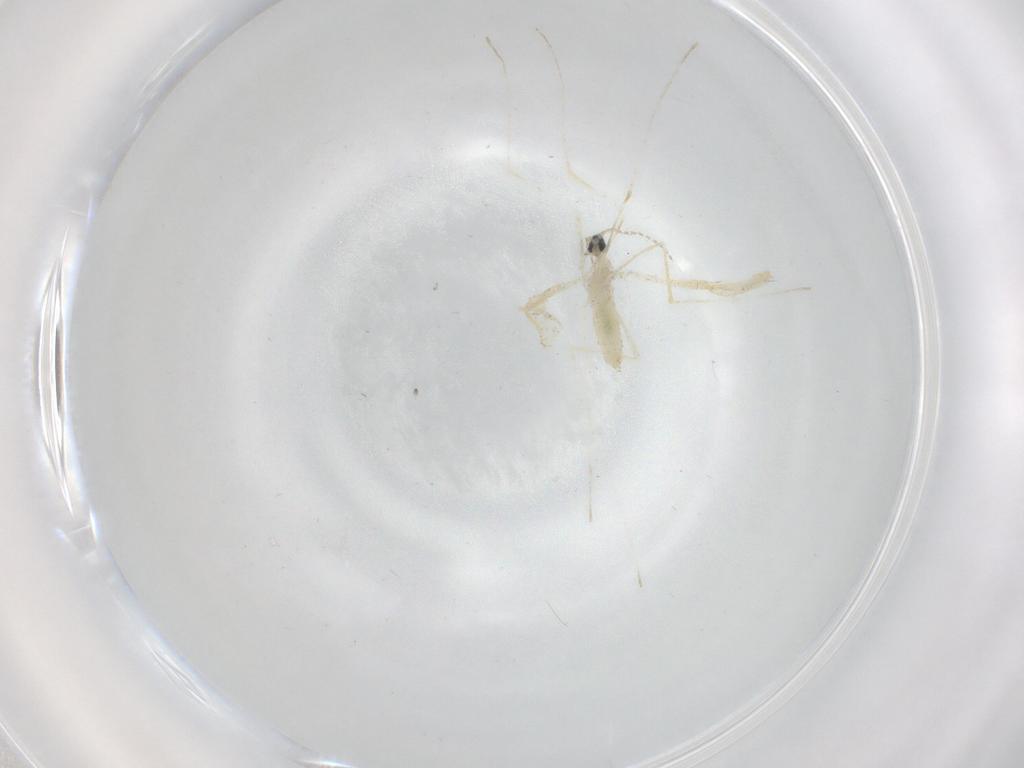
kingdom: Animalia
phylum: Arthropoda
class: Insecta
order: Diptera
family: Cecidomyiidae
